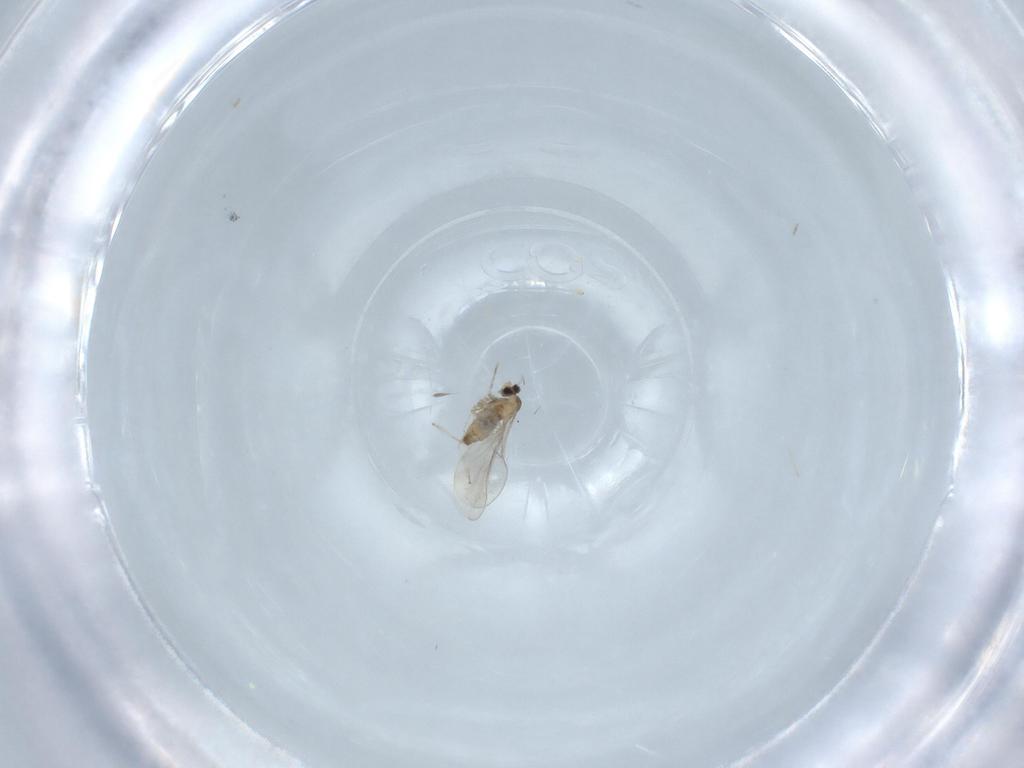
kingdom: Animalia
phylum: Arthropoda
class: Insecta
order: Diptera
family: Cecidomyiidae
